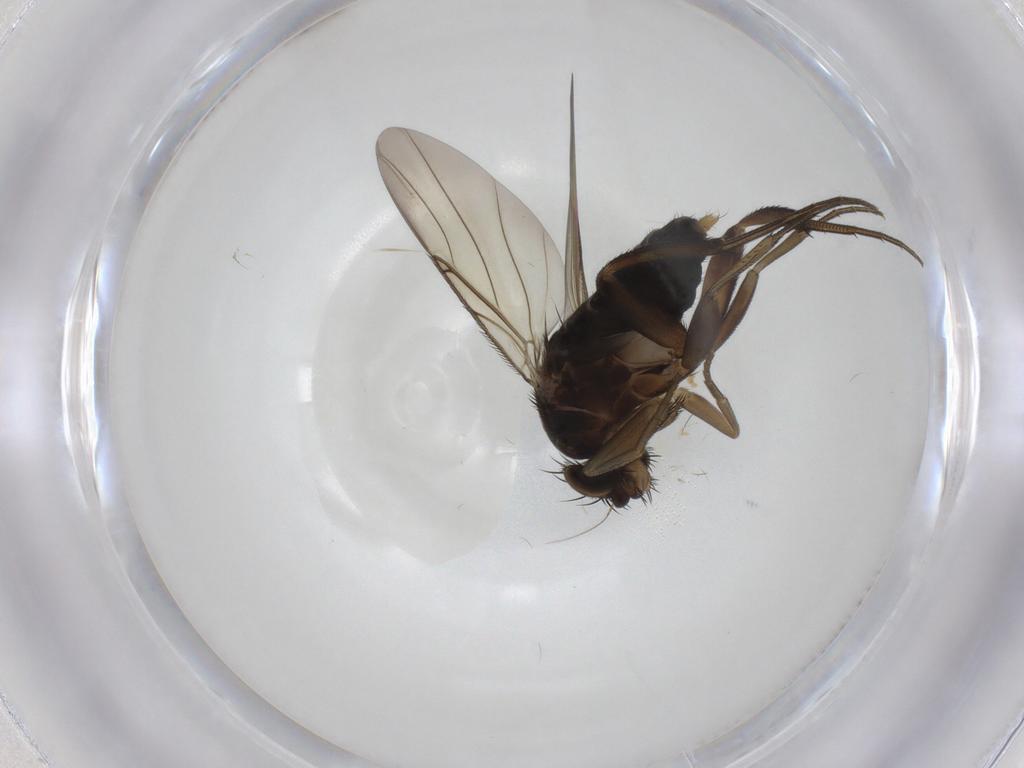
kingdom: Animalia
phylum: Arthropoda
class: Insecta
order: Diptera
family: Phoridae
